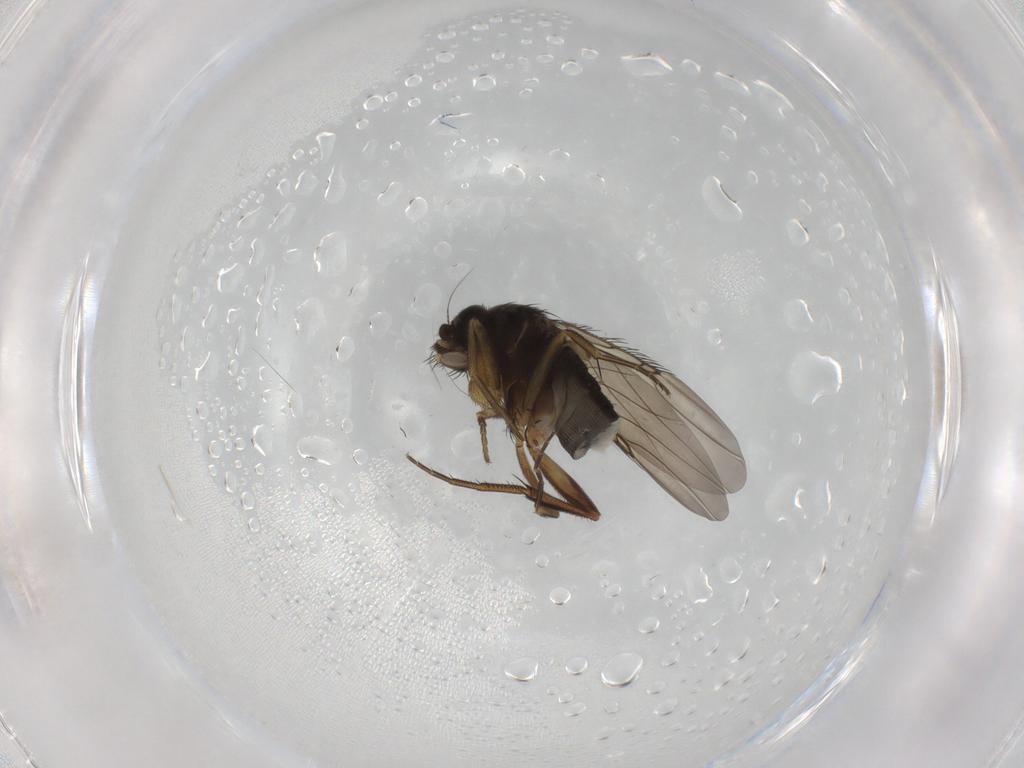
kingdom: Animalia
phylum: Arthropoda
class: Insecta
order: Diptera
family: Phoridae
